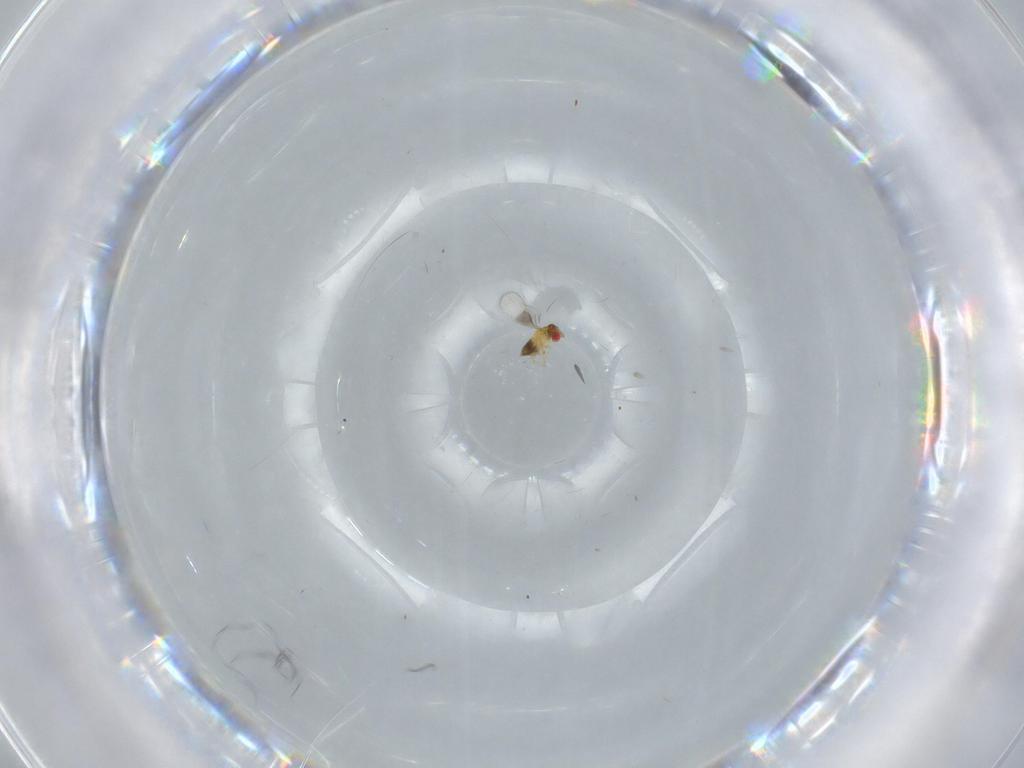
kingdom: Animalia
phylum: Arthropoda
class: Insecta
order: Hymenoptera
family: Trichogrammatidae
